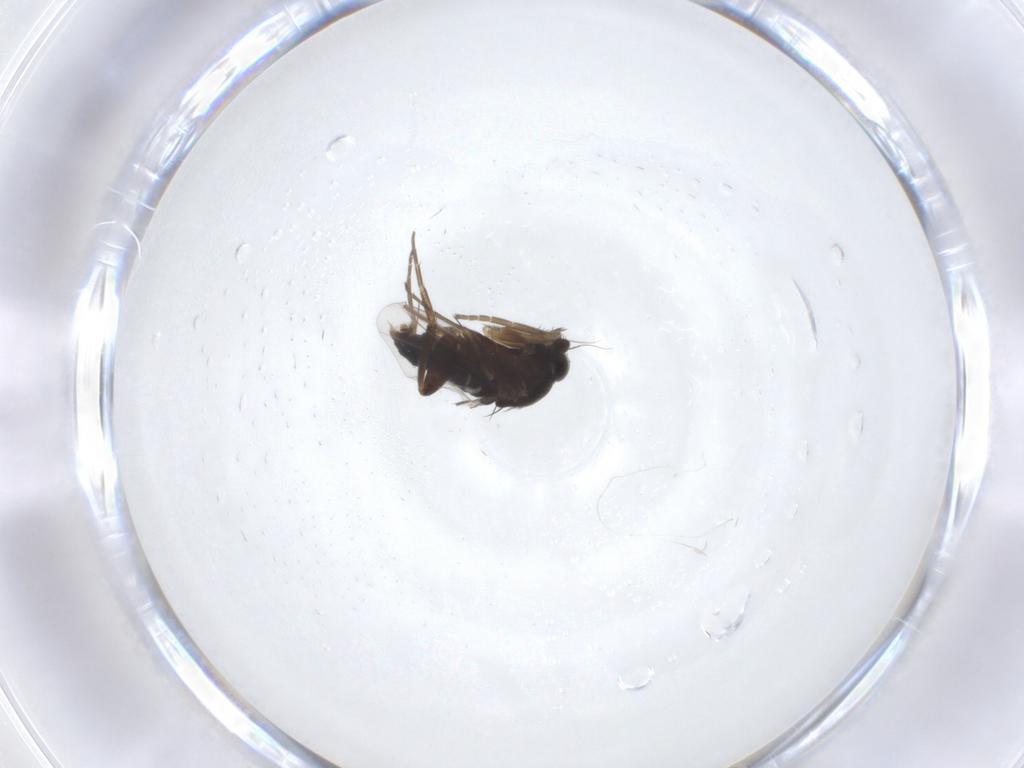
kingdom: Animalia
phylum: Arthropoda
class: Insecta
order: Diptera
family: Phoridae
